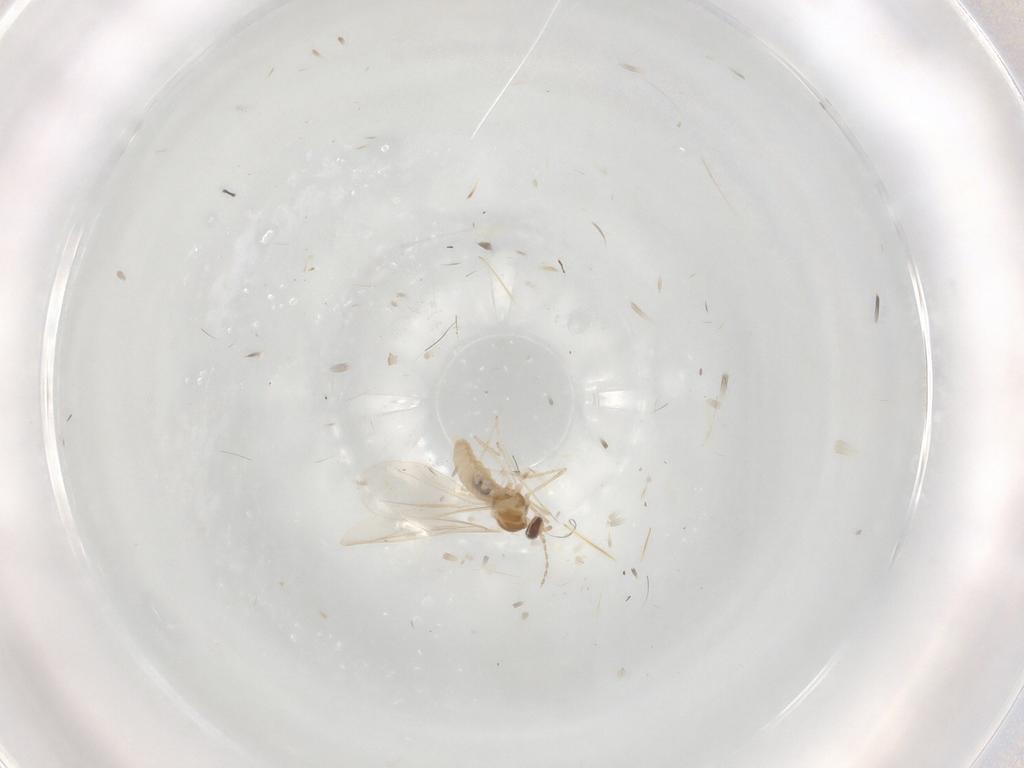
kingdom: Animalia
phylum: Arthropoda
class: Insecta
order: Diptera
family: Cecidomyiidae
